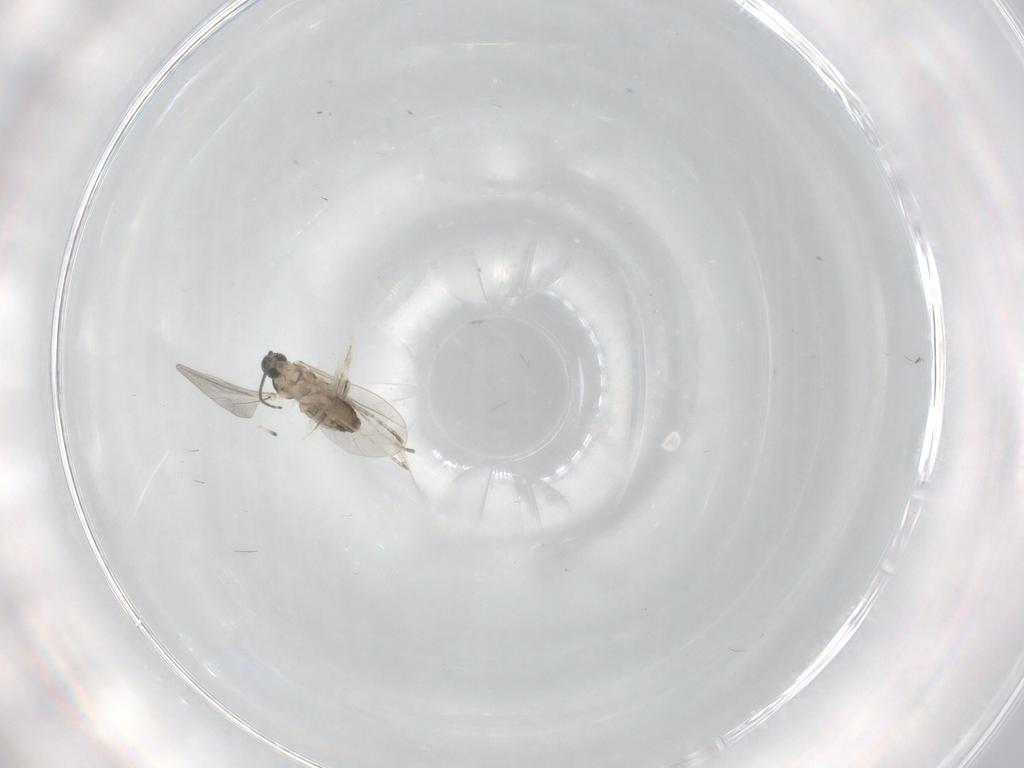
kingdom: Animalia
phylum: Arthropoda
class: Insecta
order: Diptera
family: Cecidomyiidae
